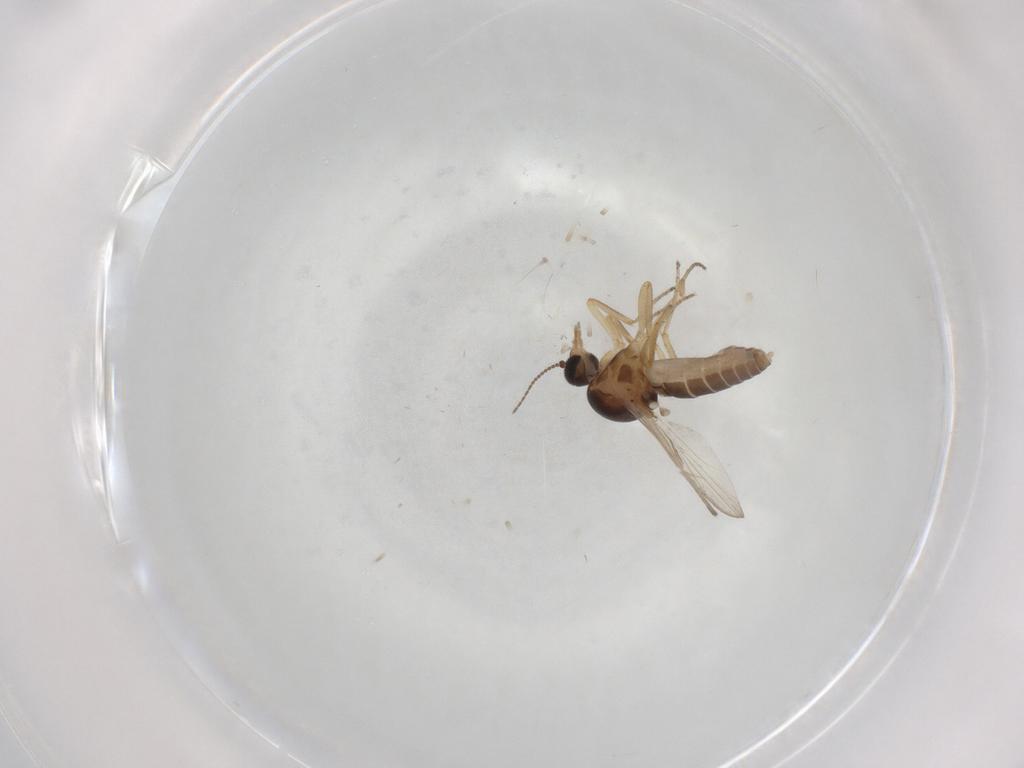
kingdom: Animalia
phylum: Arthropoda
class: Insecta
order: Diptera
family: Ceratopogonidae
